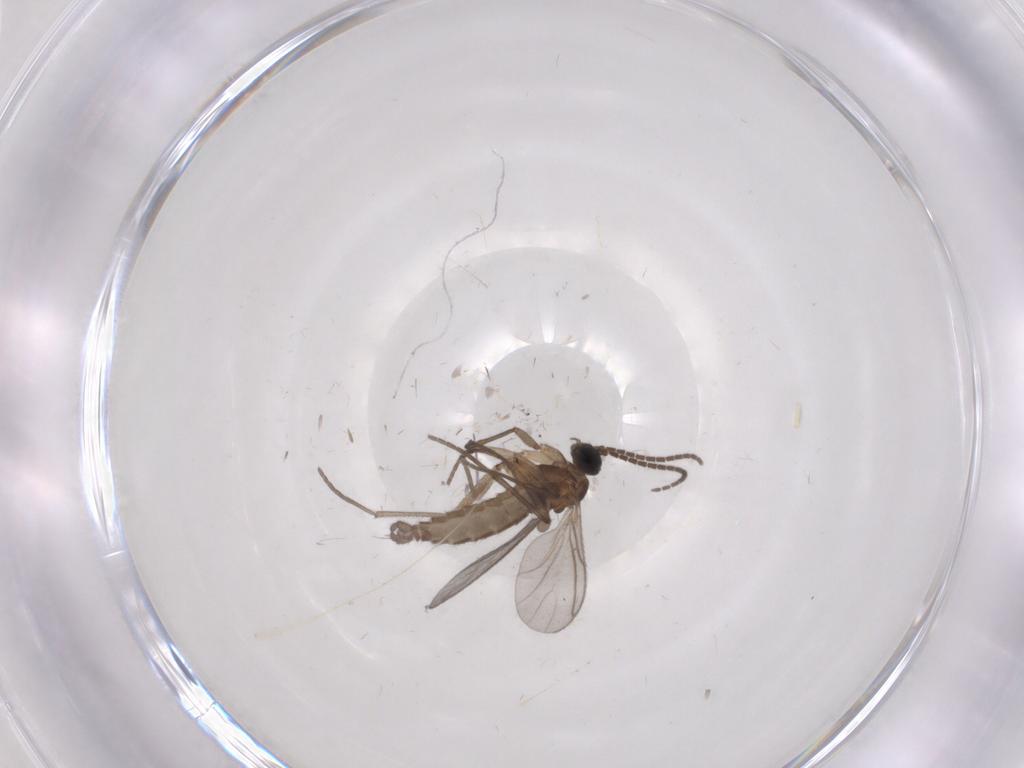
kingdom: Animalia
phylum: Arthropoda
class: Insecta
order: Diptera
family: Sciaridae
